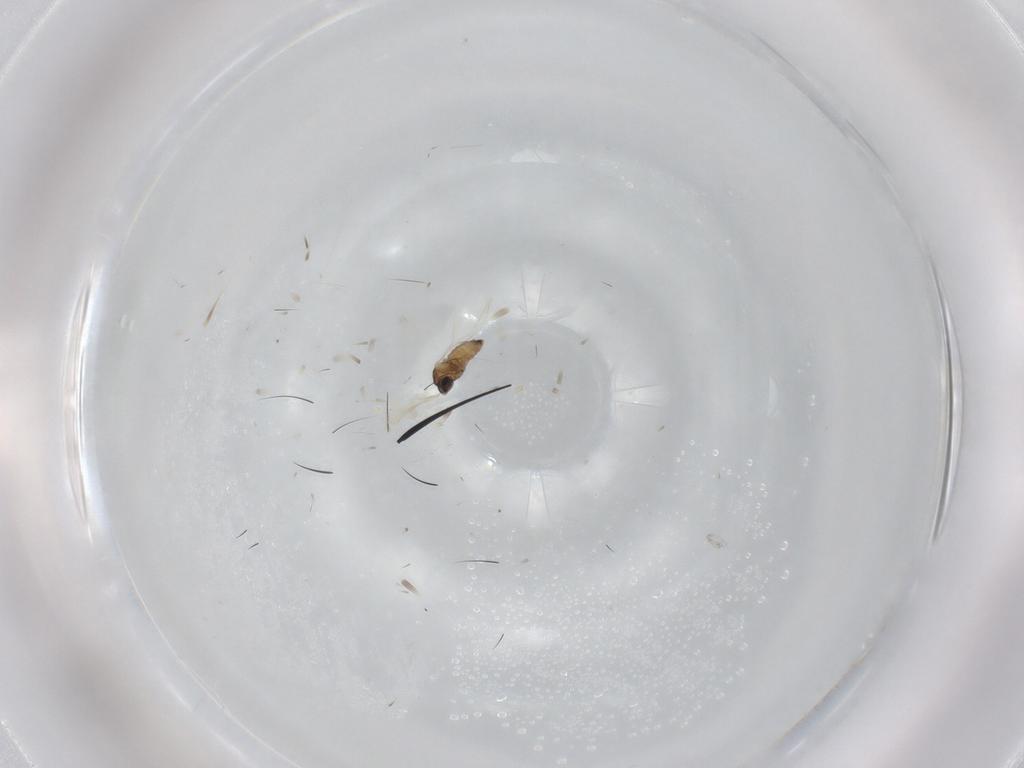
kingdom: Animalia
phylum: Arthropoda
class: Insecta
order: Diptera
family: Cecidomyiidae
